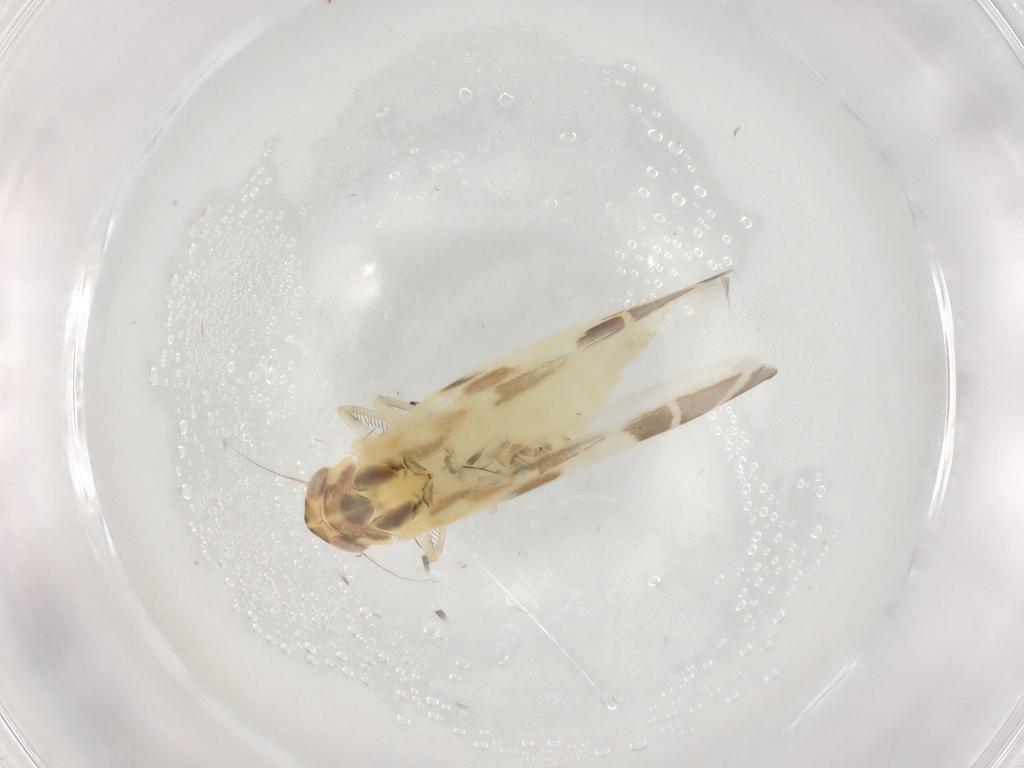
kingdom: Animalia
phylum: Arthropoda
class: Insecta
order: Hemiptera
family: Cicadellidae
